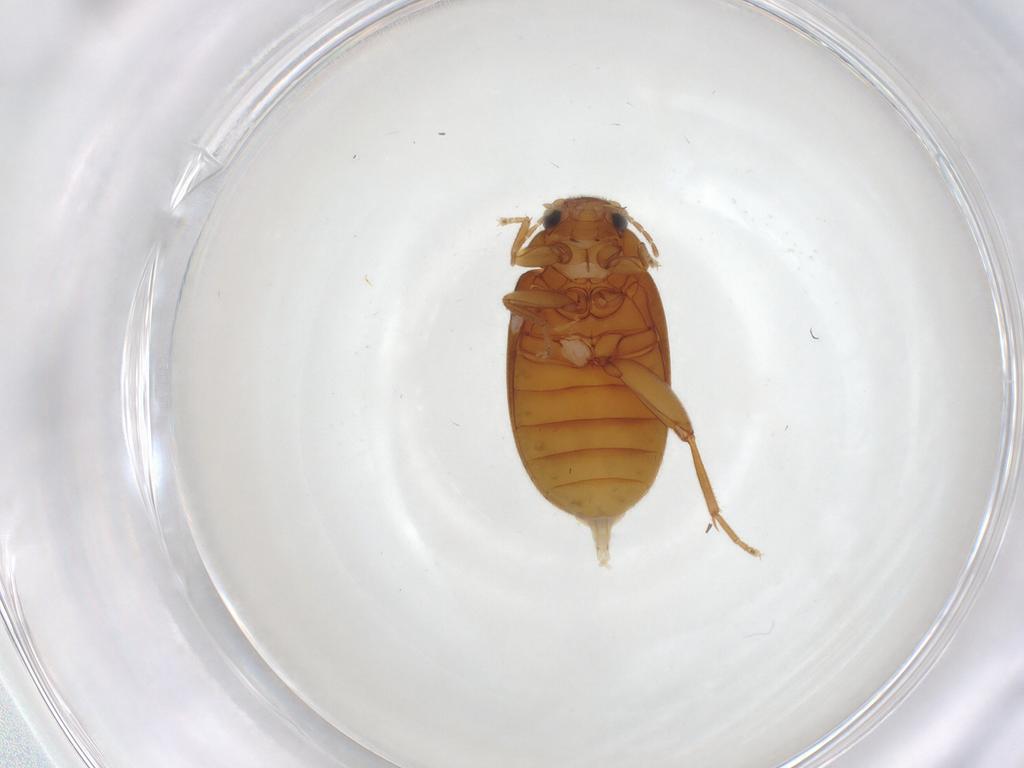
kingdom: Animalia
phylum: Arthropoda
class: Insecta
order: Coleoptera
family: Scirtidae
